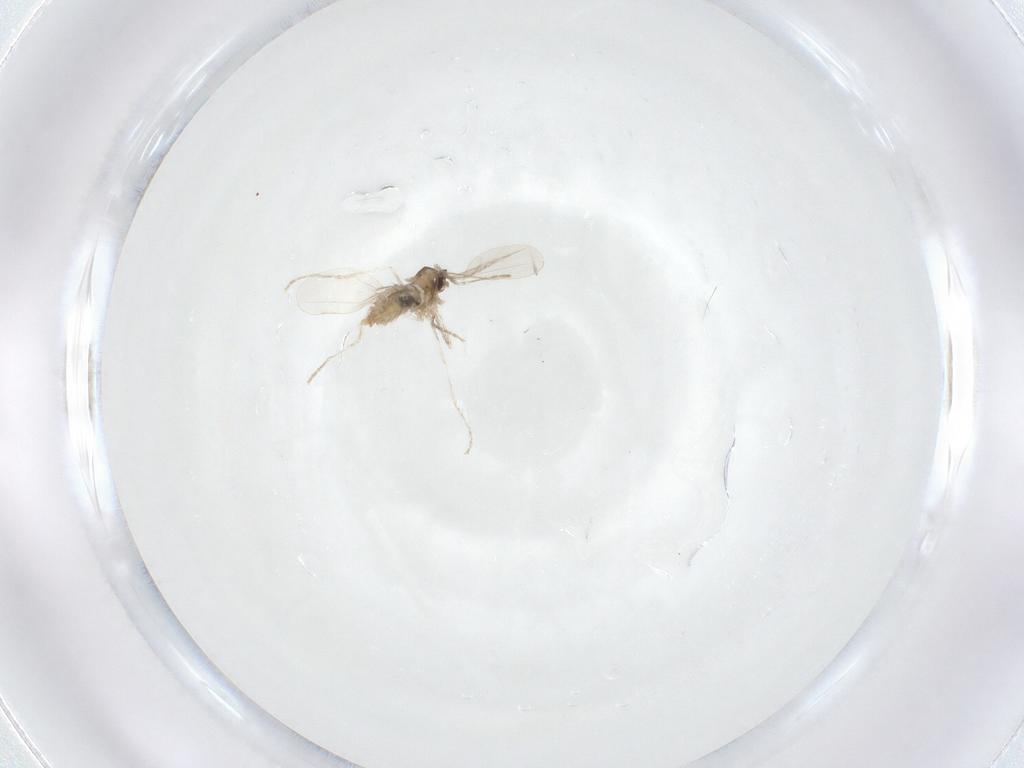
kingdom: Animalia
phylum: Arthropoda
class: Insecta
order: Diptera
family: Cecidomyiidae
